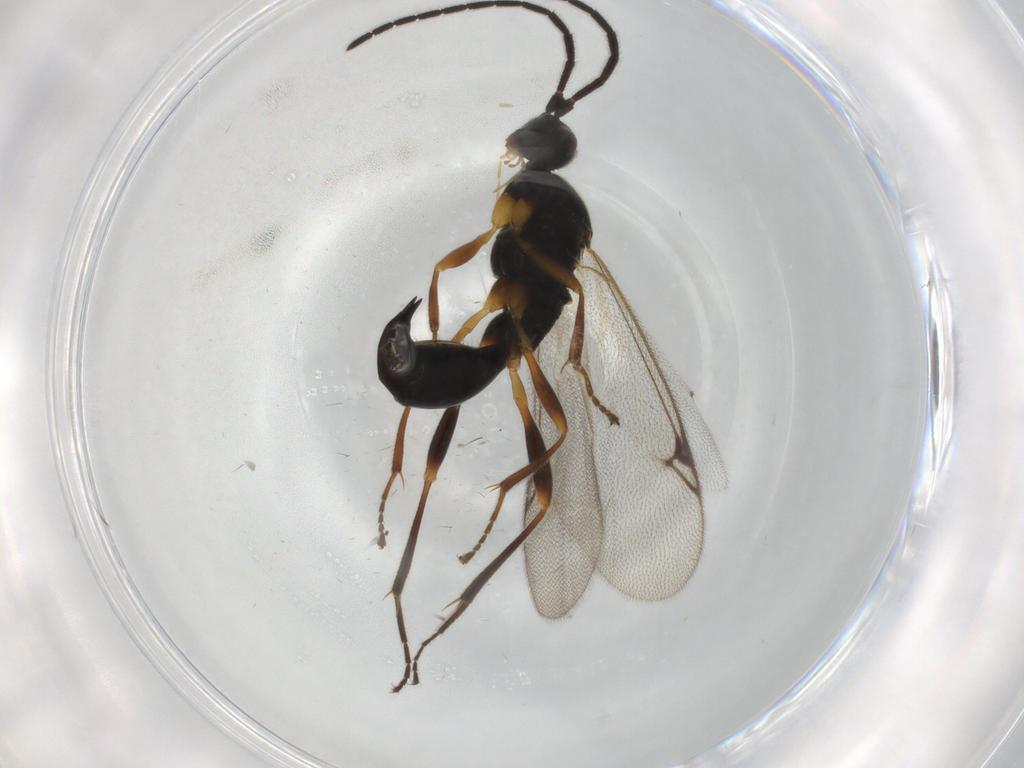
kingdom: Animalia
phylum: Arthropoda
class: Insecta
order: Hymenoptera
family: Proctotrupidae
